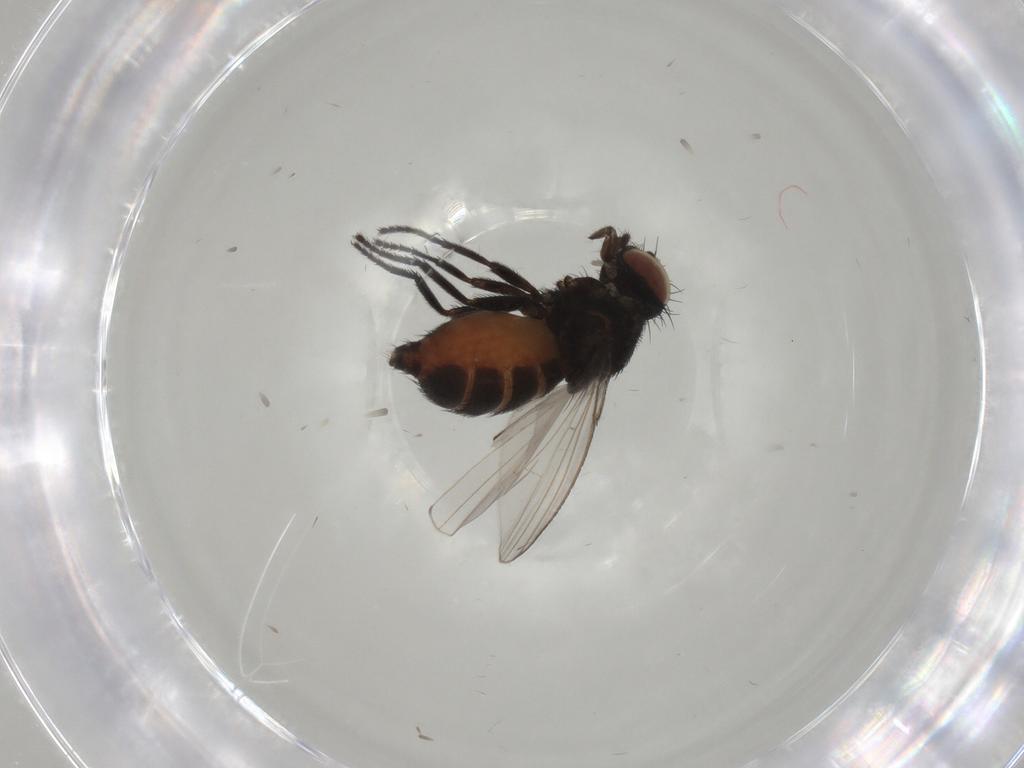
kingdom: Animalia
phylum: Arthropoda
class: Insecta
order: Diptera
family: Milichiidae
